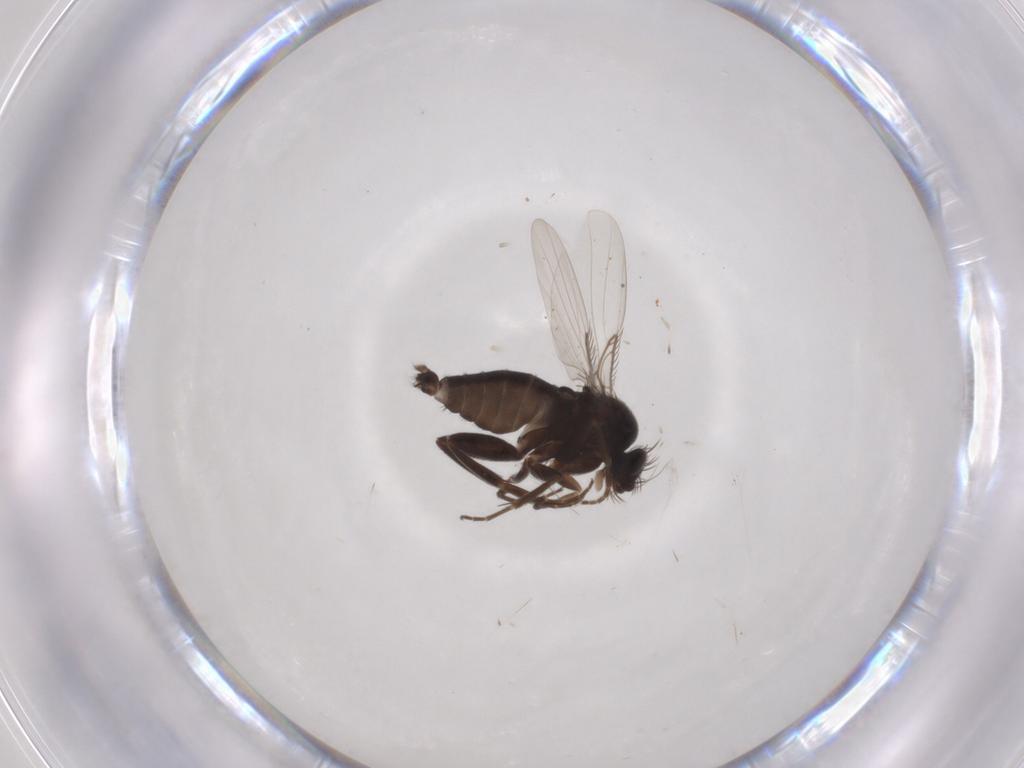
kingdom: Animalia
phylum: Arthropoda
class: Insecta
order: Diptera
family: Phoridae
